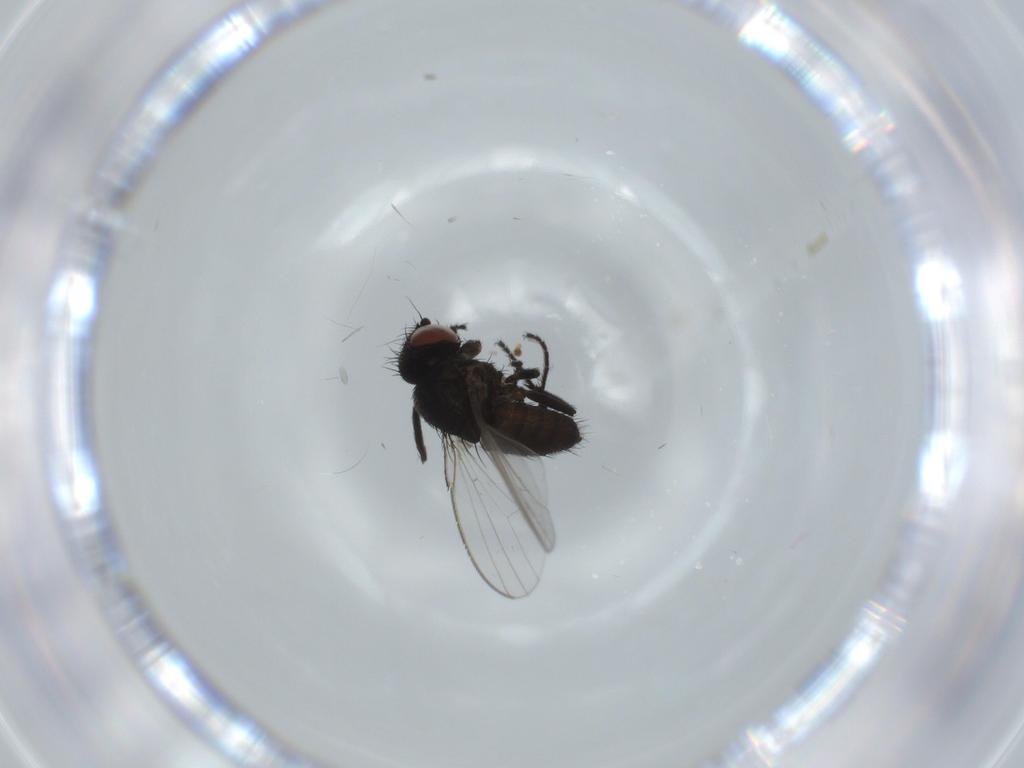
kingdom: Animalia
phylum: Arthropoda
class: Insecta
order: Diptera
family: Milichiidae
